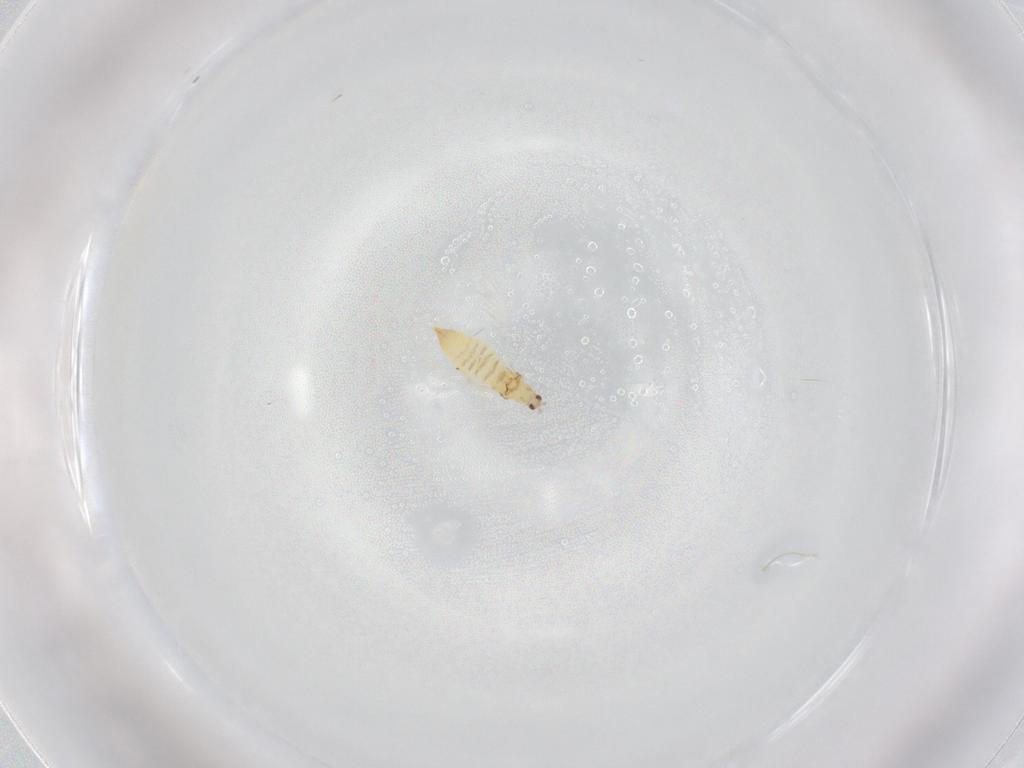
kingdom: Animalia
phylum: Arthropoda
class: Insecta
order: Thysanoptera
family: Thripidae
